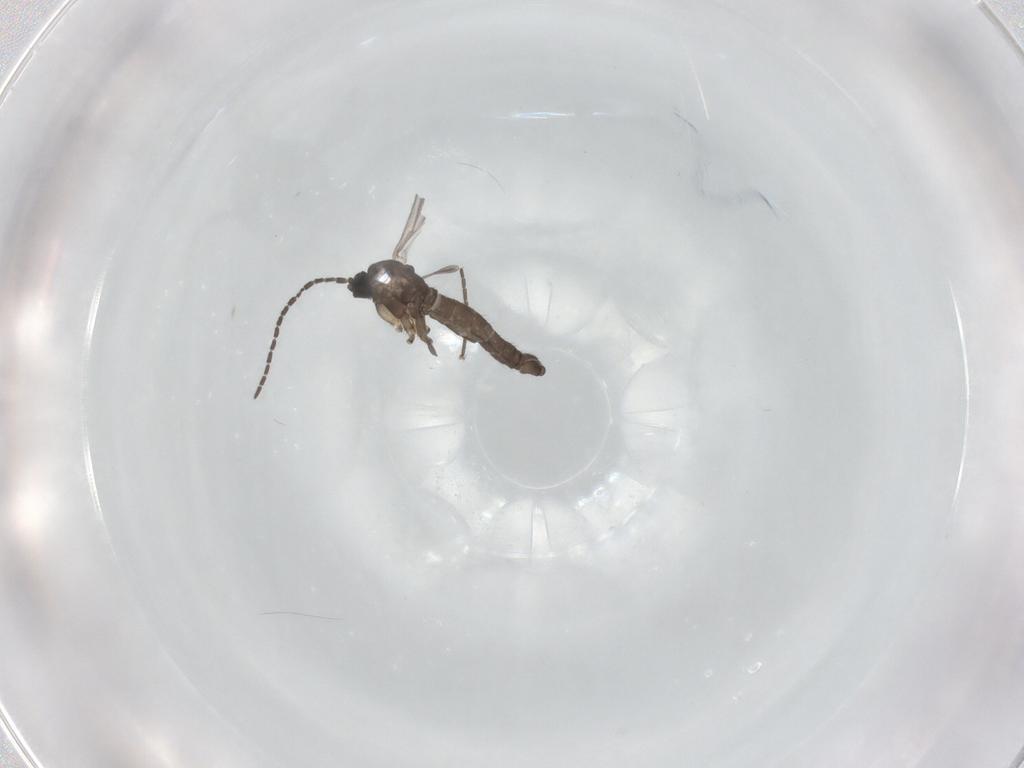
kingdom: Animalia
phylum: Arthropoda
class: Insecta
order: Diptera
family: Sciaridae
